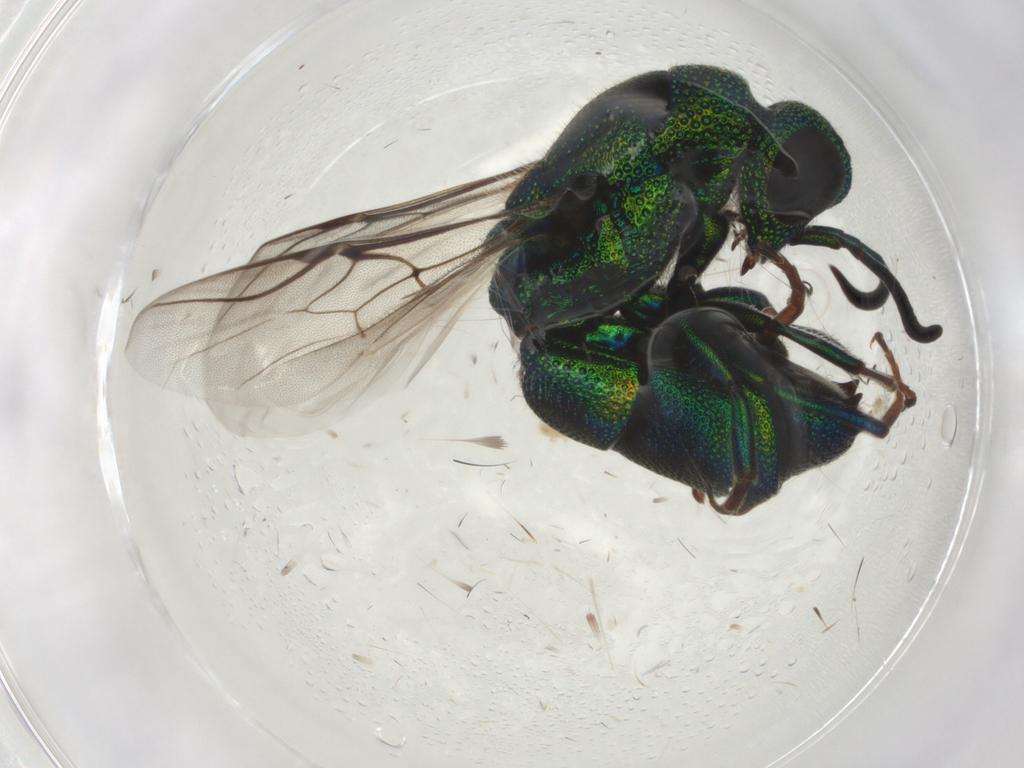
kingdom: Animalia
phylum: Arthropoda
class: Insecta
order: Hymenoptera
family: Chrysididae
